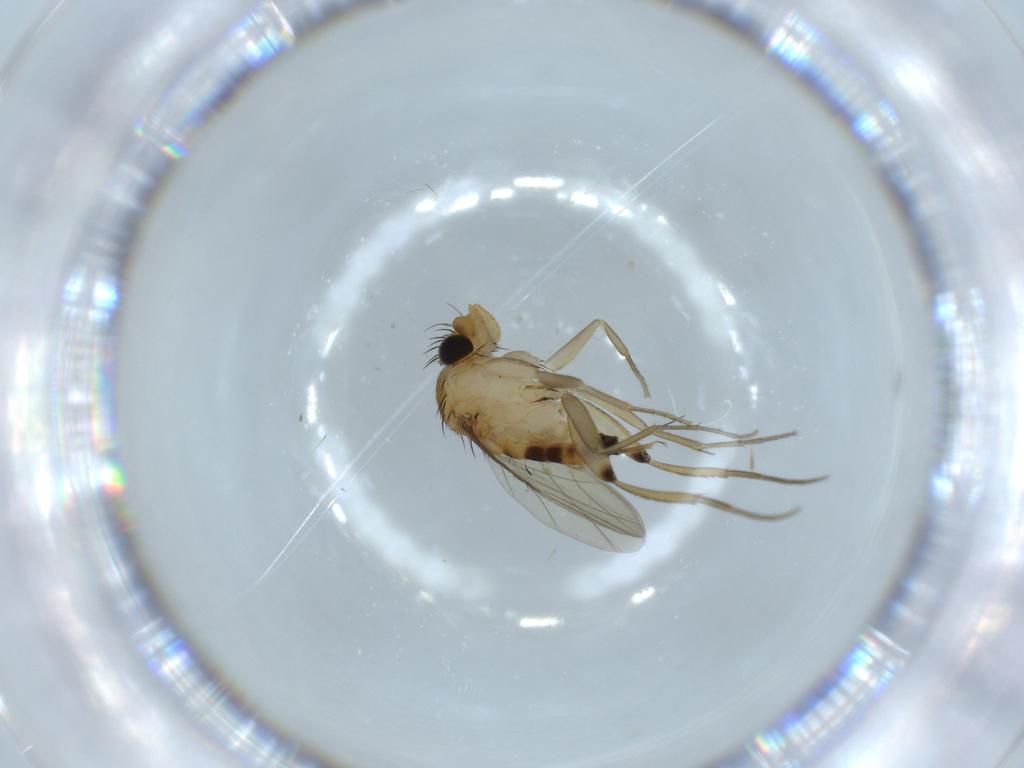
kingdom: Animalia
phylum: Arthropoda
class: Insecta
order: Diptera
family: Phoridae
